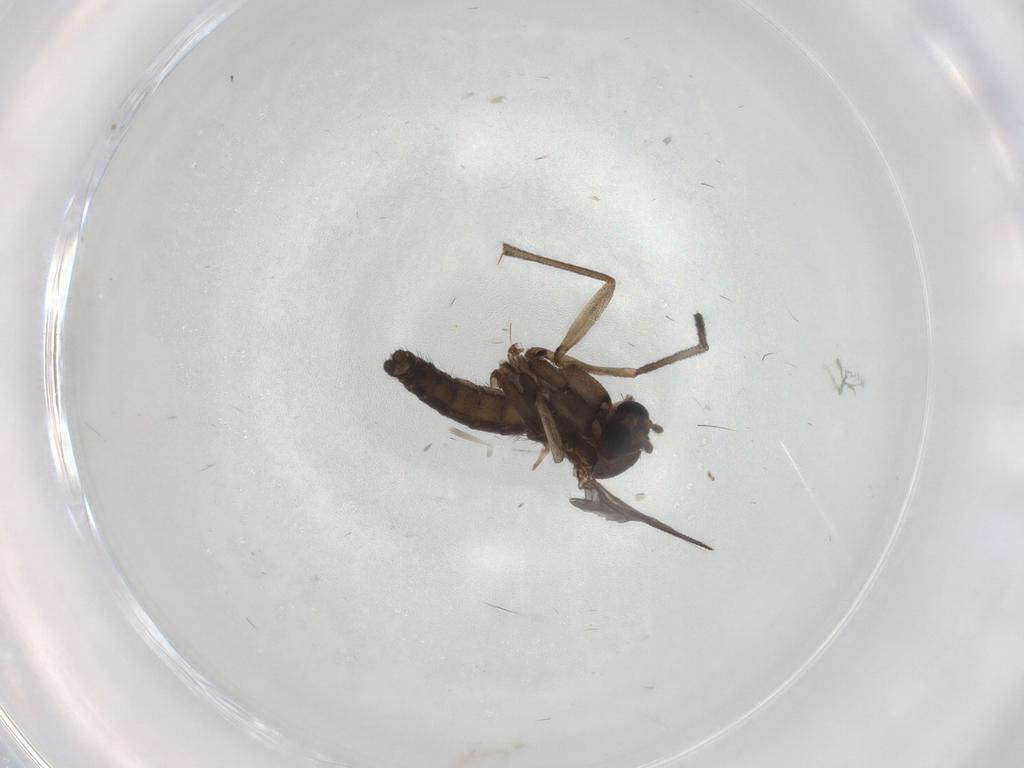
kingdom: Animalia
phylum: Arthropoda
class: Insecta
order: Diptera
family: Sciaridae
